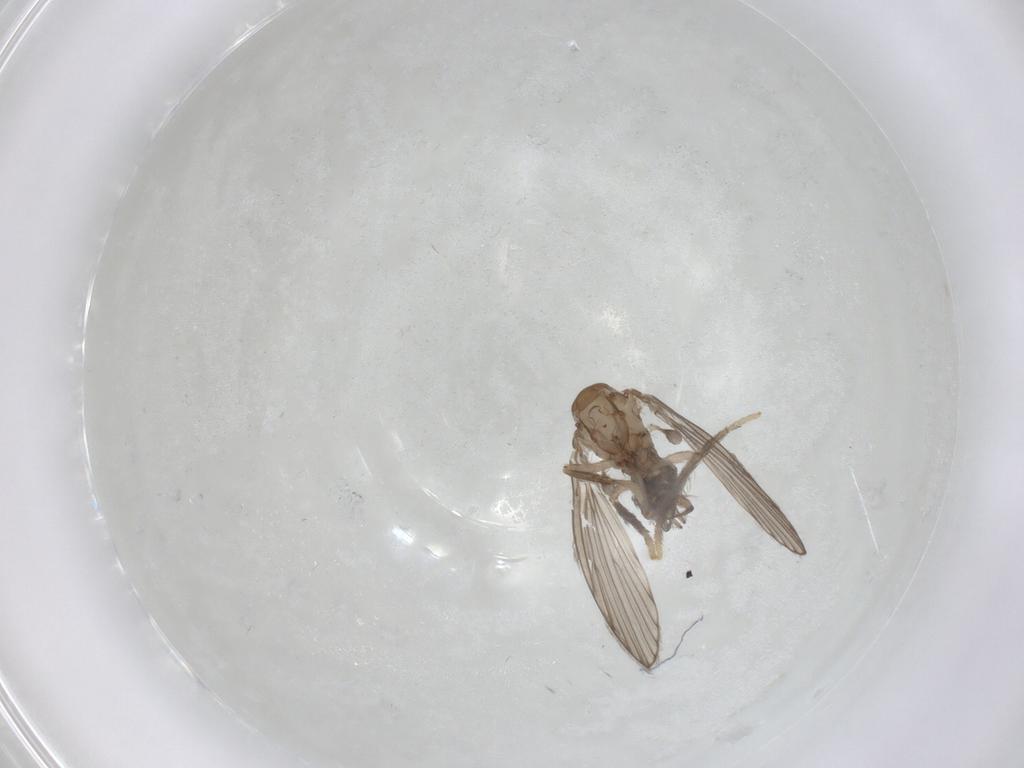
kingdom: Animalia
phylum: Arthropoda
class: Insecta
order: Diptera
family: Psychodidae
